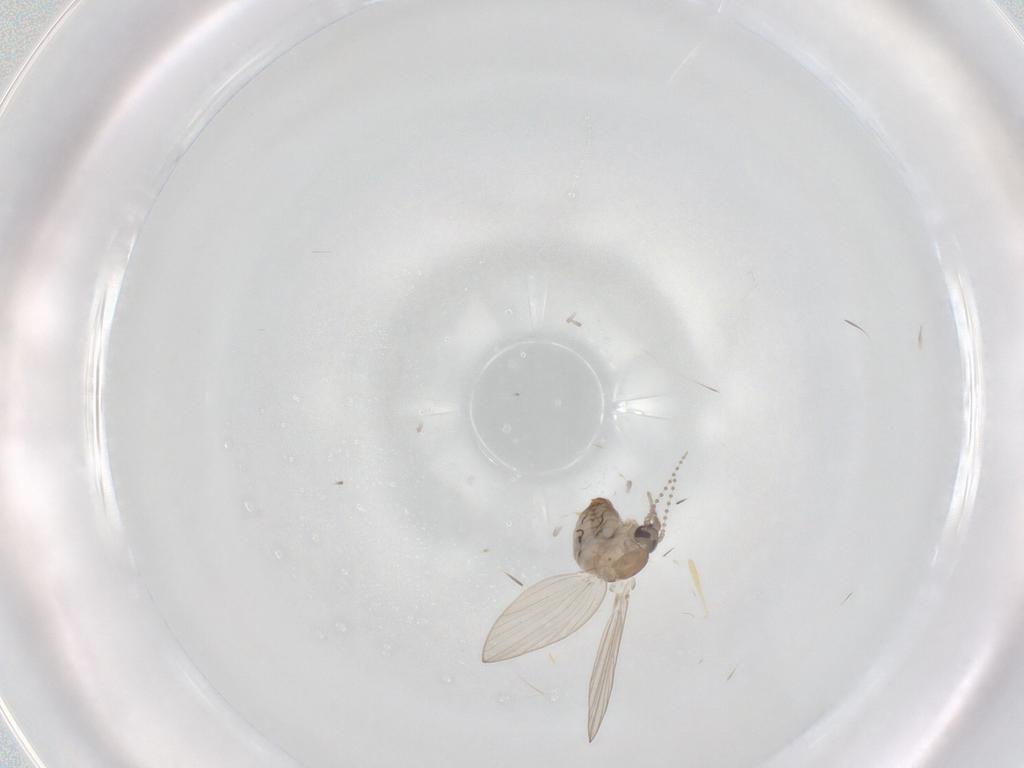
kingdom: Animalia
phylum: Arthropoda
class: Insecta
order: Diptera
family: Psychodidae
